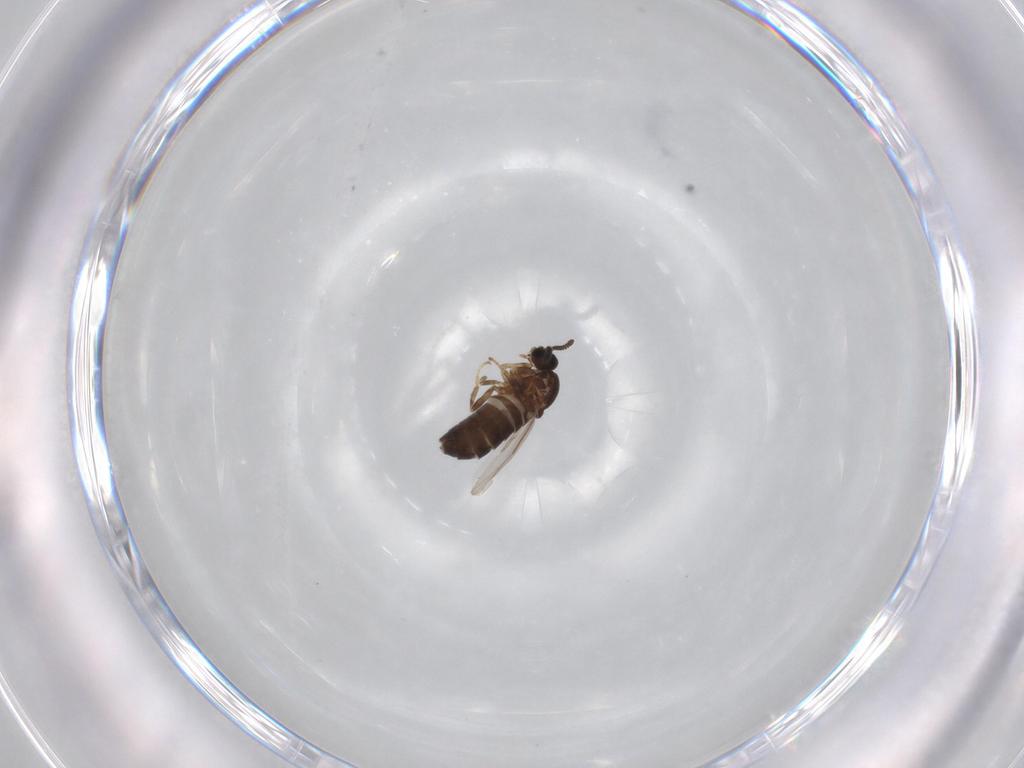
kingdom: Animalia
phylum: Arthropoda
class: Insecta
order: Diptera
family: Scatopsidae
